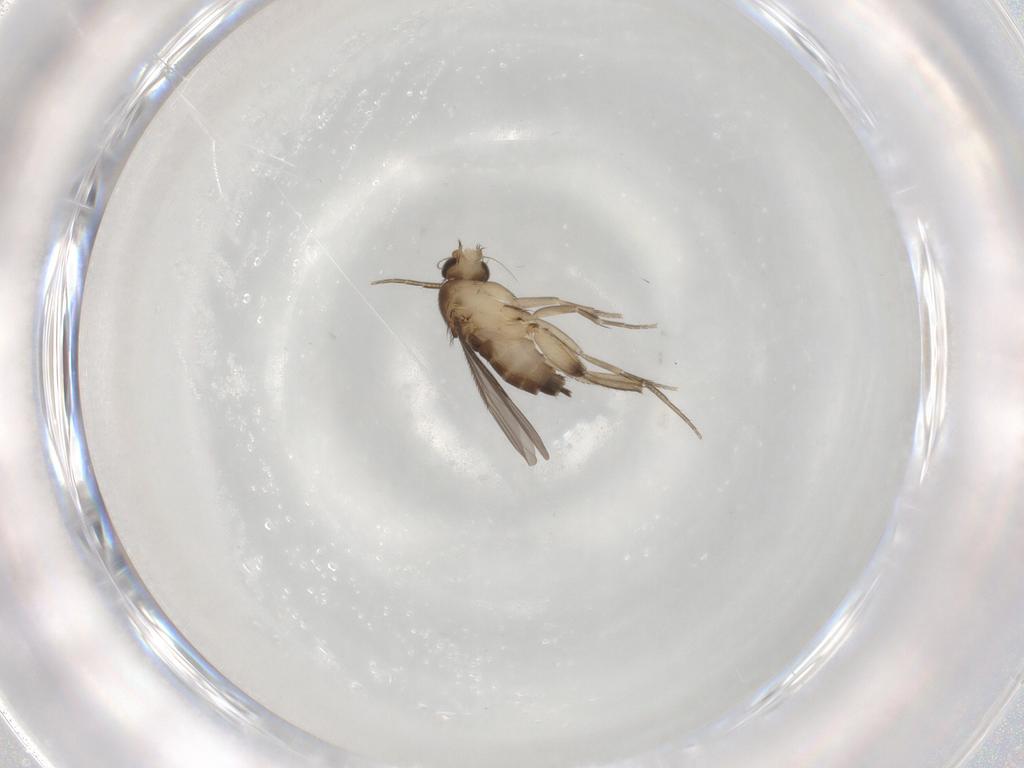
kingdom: Animalia
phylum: Arthropoda
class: Insecta
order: Diptera
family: Phoridae
